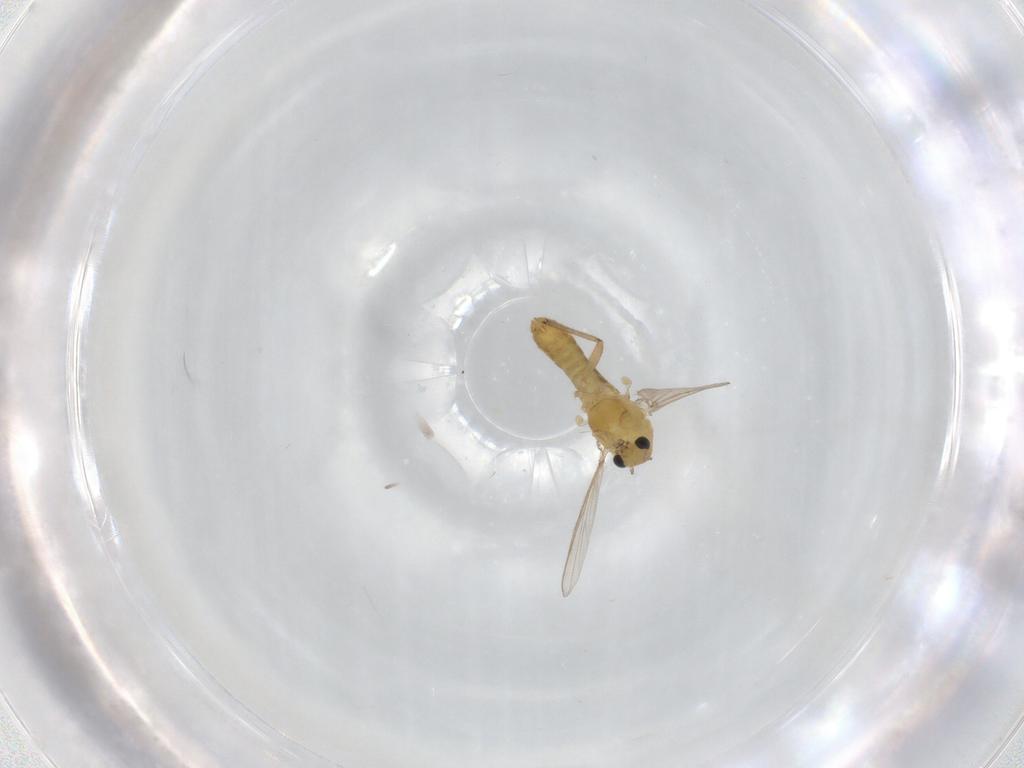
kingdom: Animalia
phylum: Arthropoda
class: Insecta
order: Diptera
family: Chironomidae
